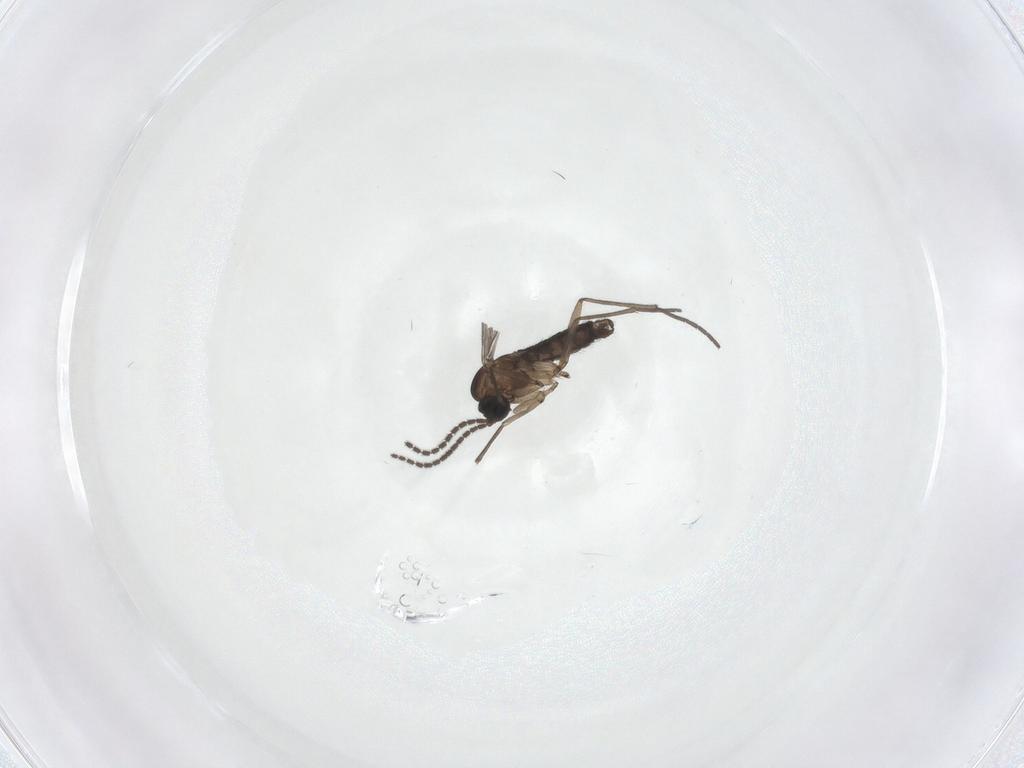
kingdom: Animalia
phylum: Arthropoda
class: Insecta
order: Diptera
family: Sciaridae
